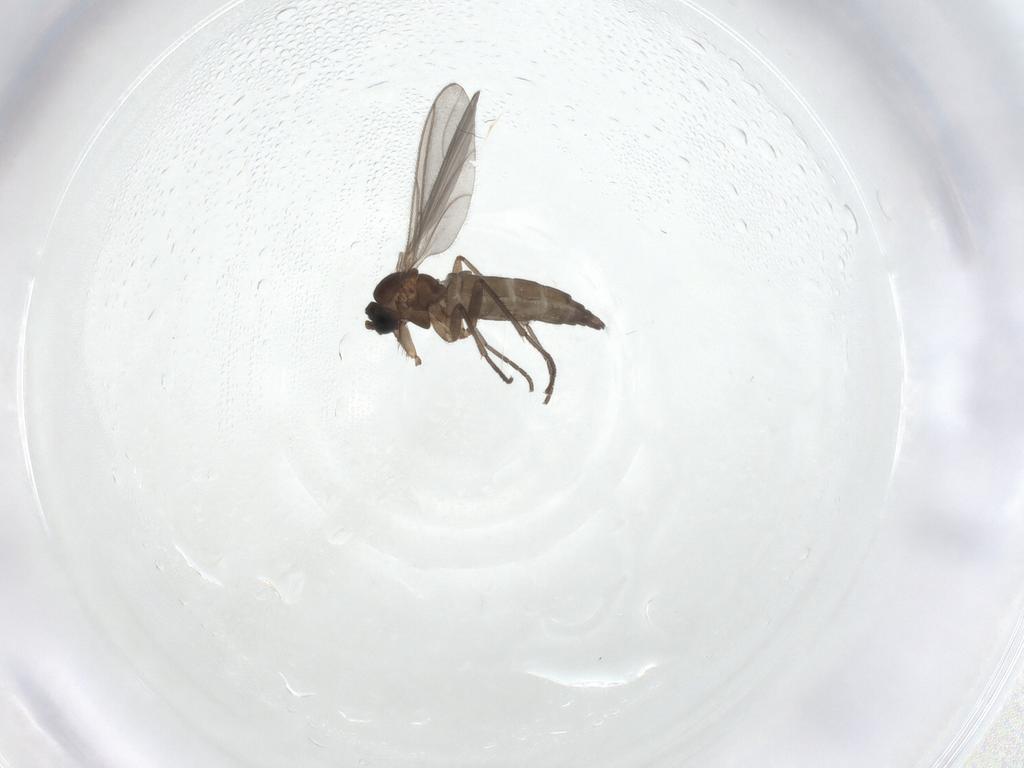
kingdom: Animalia
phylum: Arthropoda
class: Insecta
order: Diptera
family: Sciaridae
